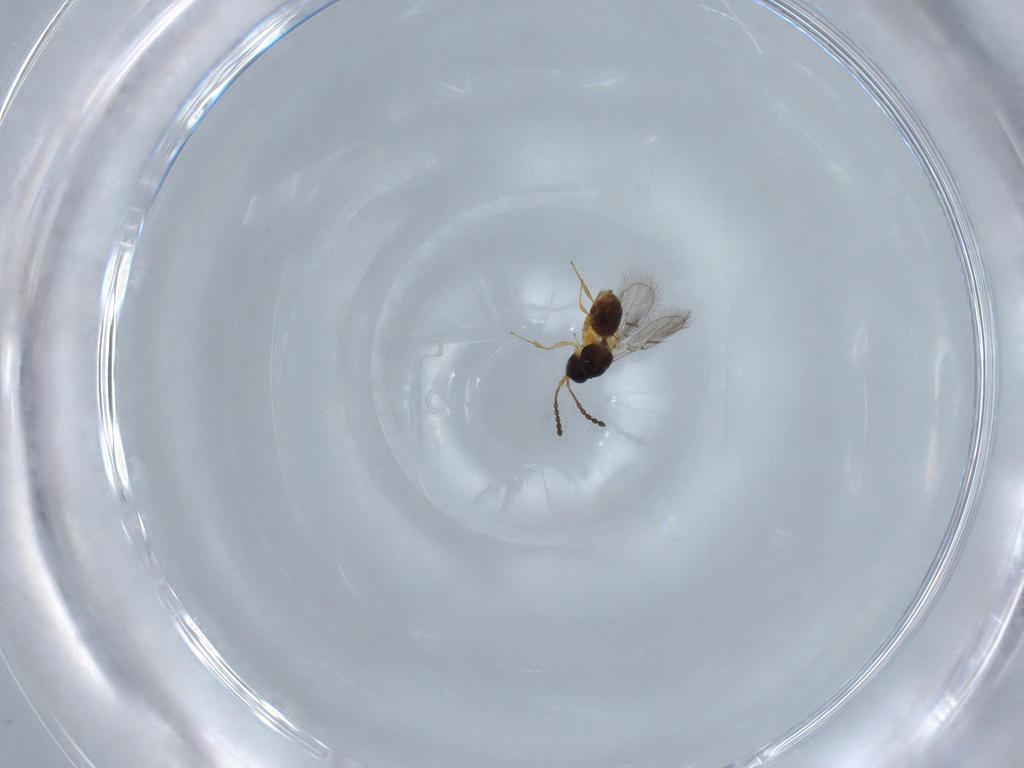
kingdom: Animalia
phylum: Arthropoda
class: Insecta
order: Hymenoptera
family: Figitidae
